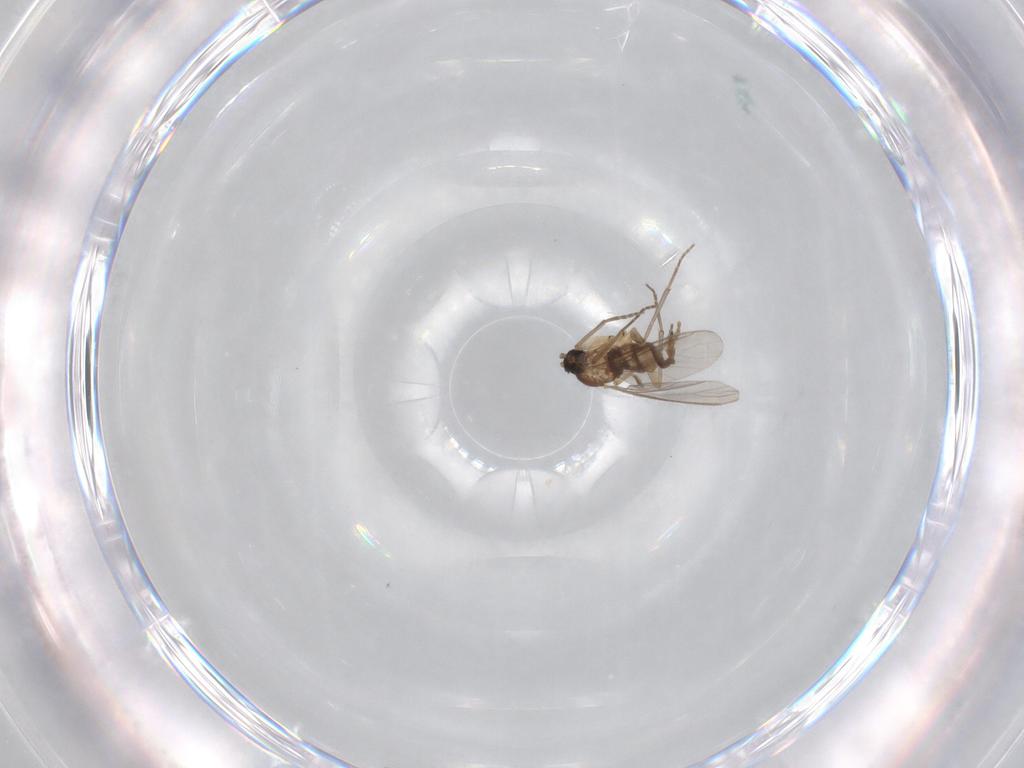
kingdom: Animalia
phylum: Arthropoda
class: Insecta
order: Diptera
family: Sciaridae
